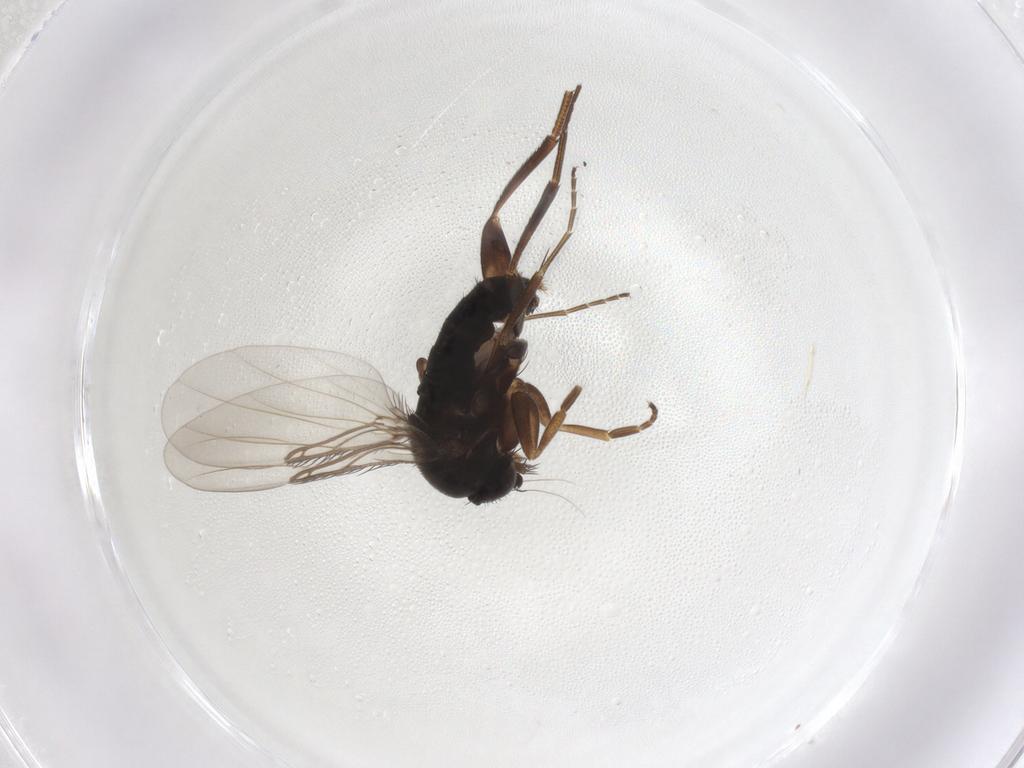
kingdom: Animalia
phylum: Arthropoda
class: Insecta
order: Diptera
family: Phoridae
